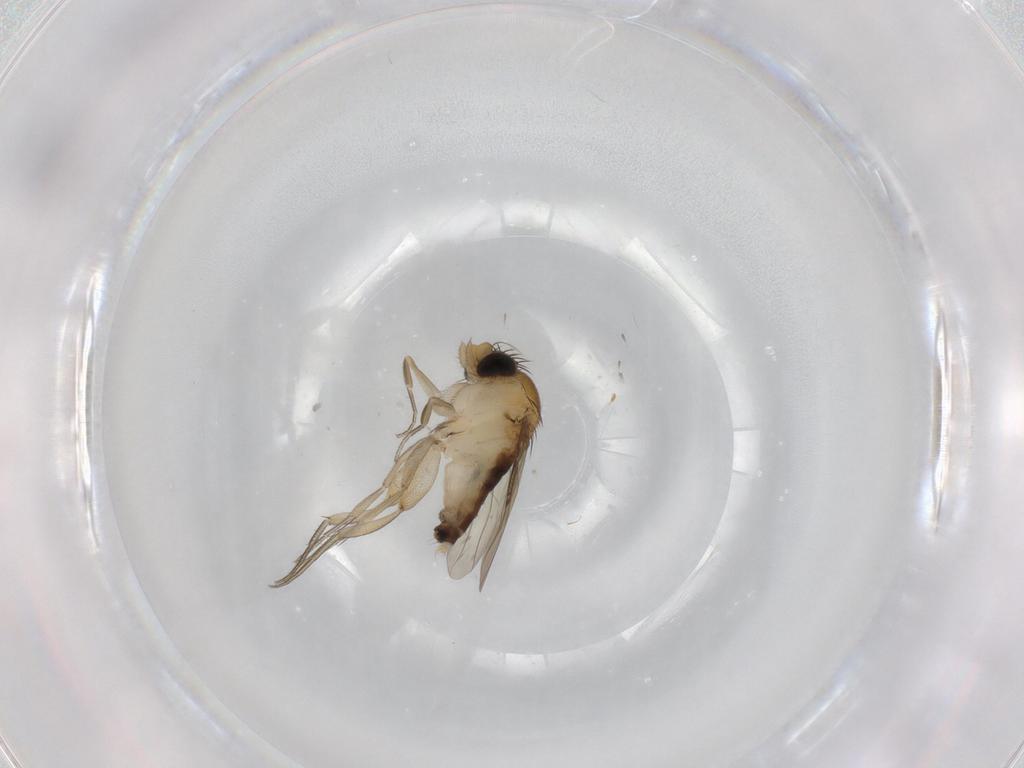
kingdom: Animalia
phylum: Arthropoda
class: Insecta
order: Diptera
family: Phoridae
